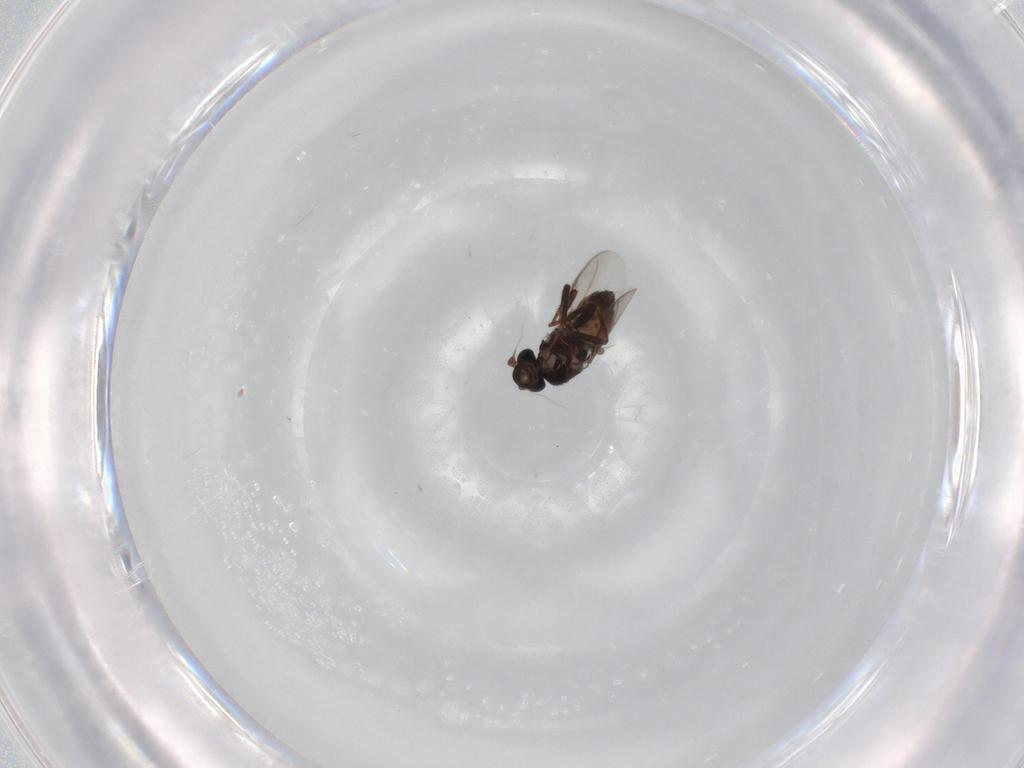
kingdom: Animalia
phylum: Arthropoda
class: Insecta
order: Diptera
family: Sphaeroceridae
